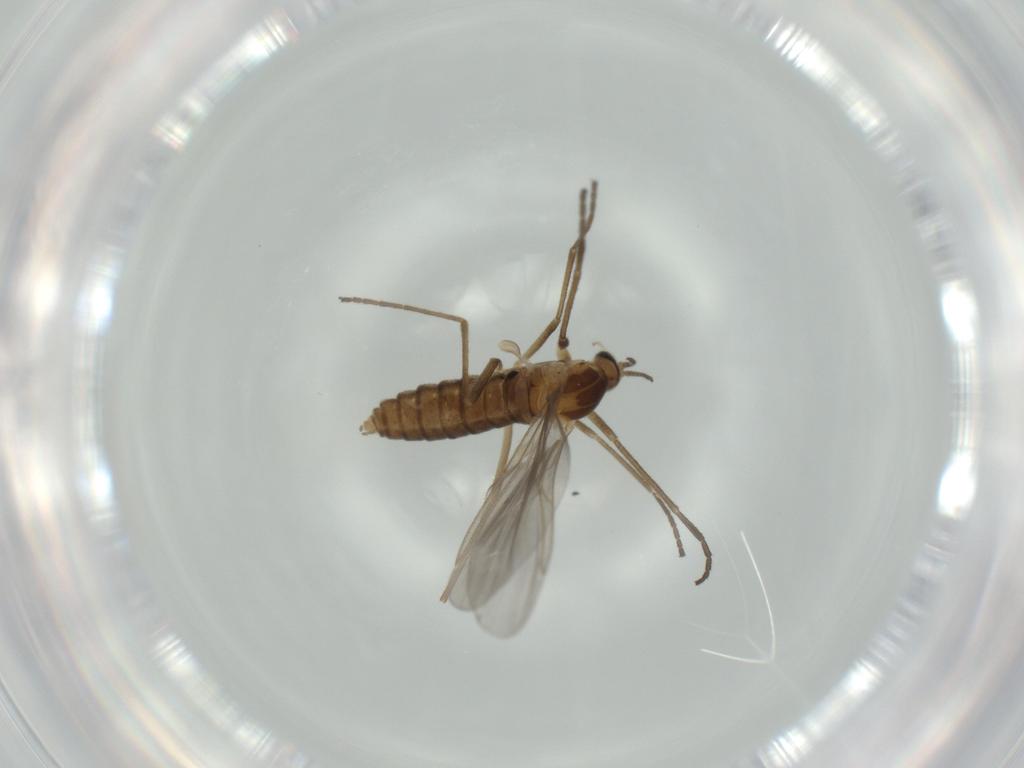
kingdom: Animalia
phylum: Arthropoda
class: Insecta
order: Diptera
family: Cecidomyiidae
